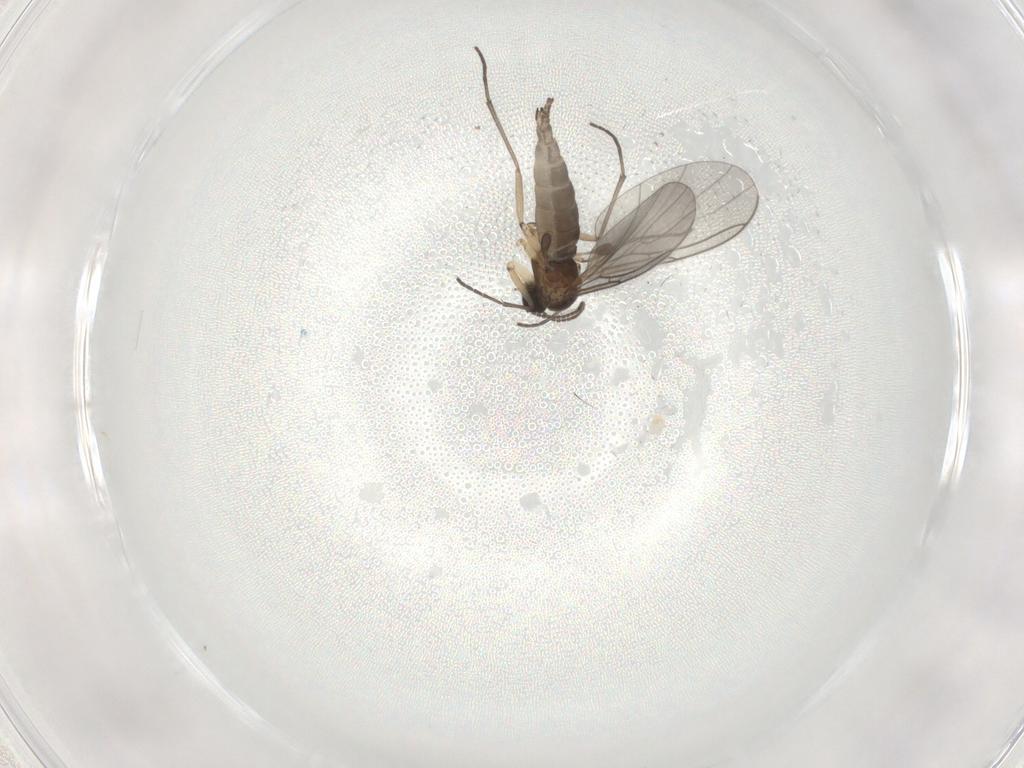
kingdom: Animalia
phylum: Arthropoda
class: Insecta
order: Diptera
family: Sciaridae
